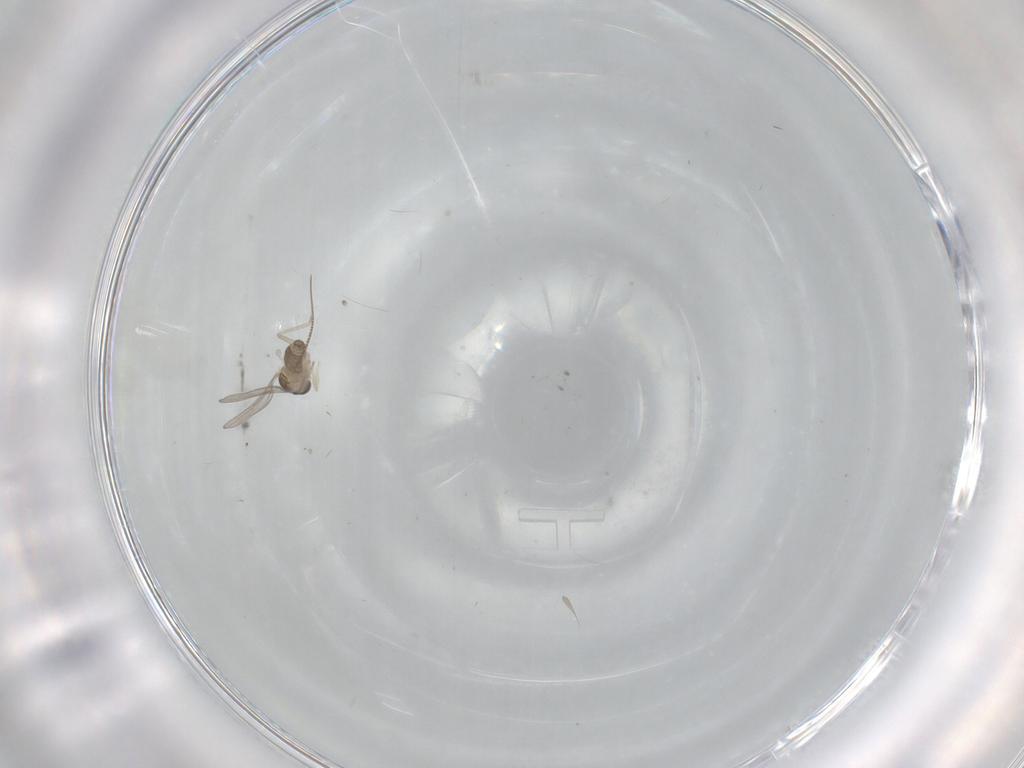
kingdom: Animalia
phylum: Arthropoda
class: Insecta
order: Diptera
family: Cecidomyiidae
